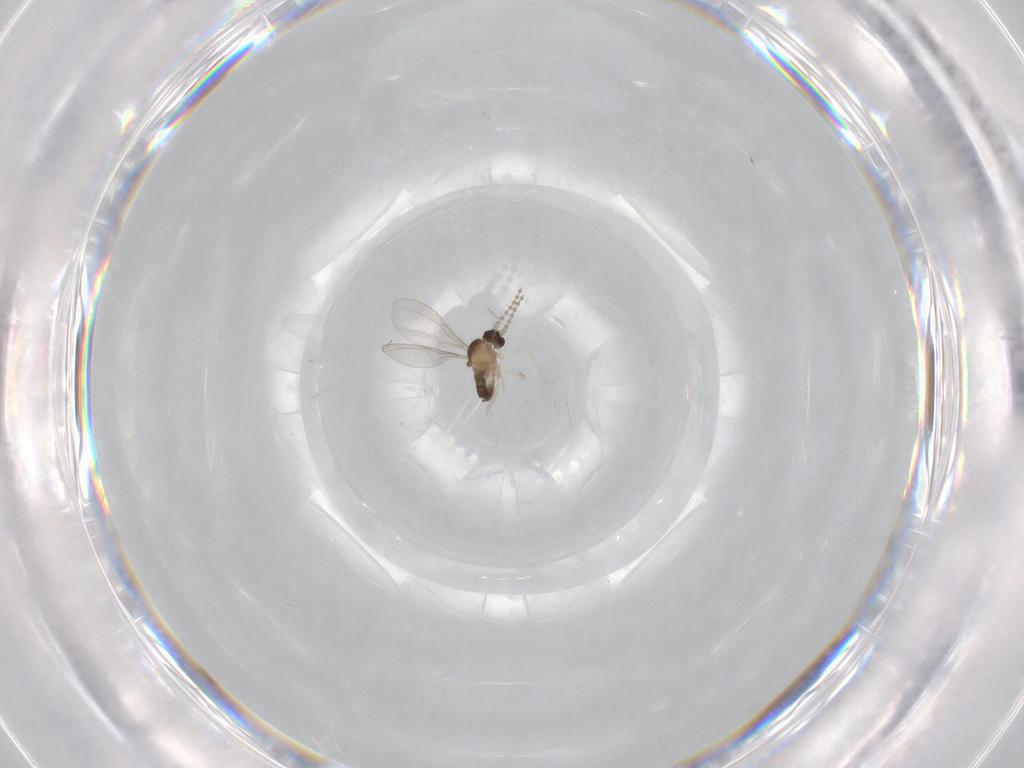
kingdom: Animalia
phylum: Arthropoda
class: Insecta
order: Diptera
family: Cecidomyiidae
